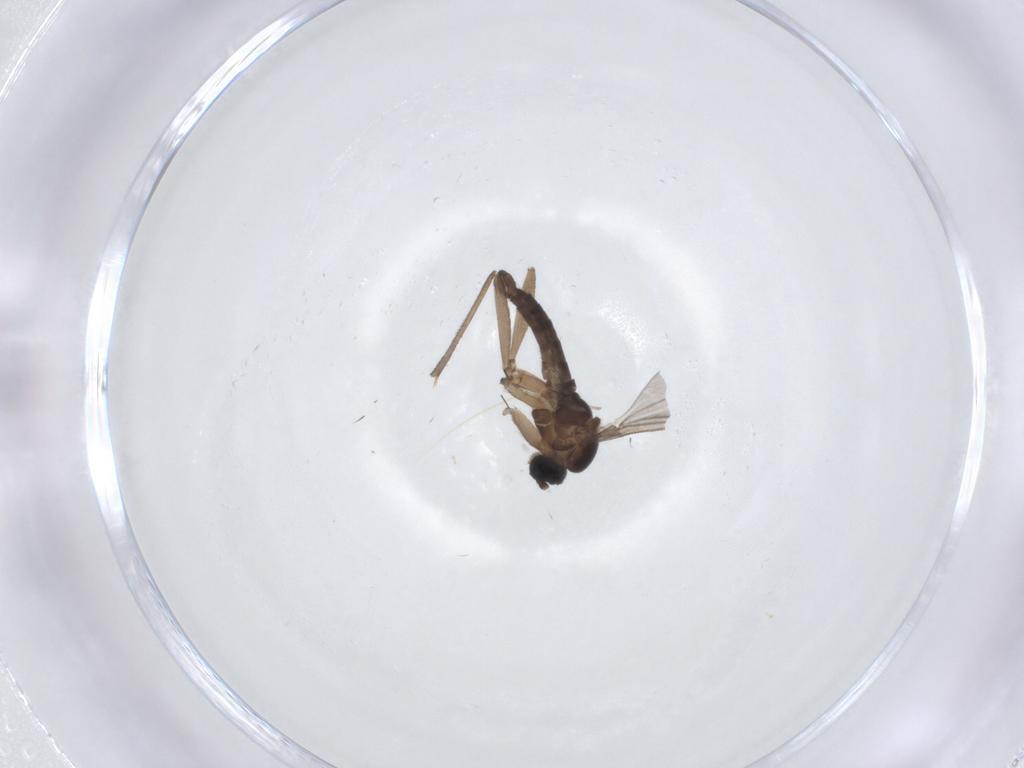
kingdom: Animalia
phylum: Arthropoda
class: Insecta
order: Diptera
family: Sciaridae
